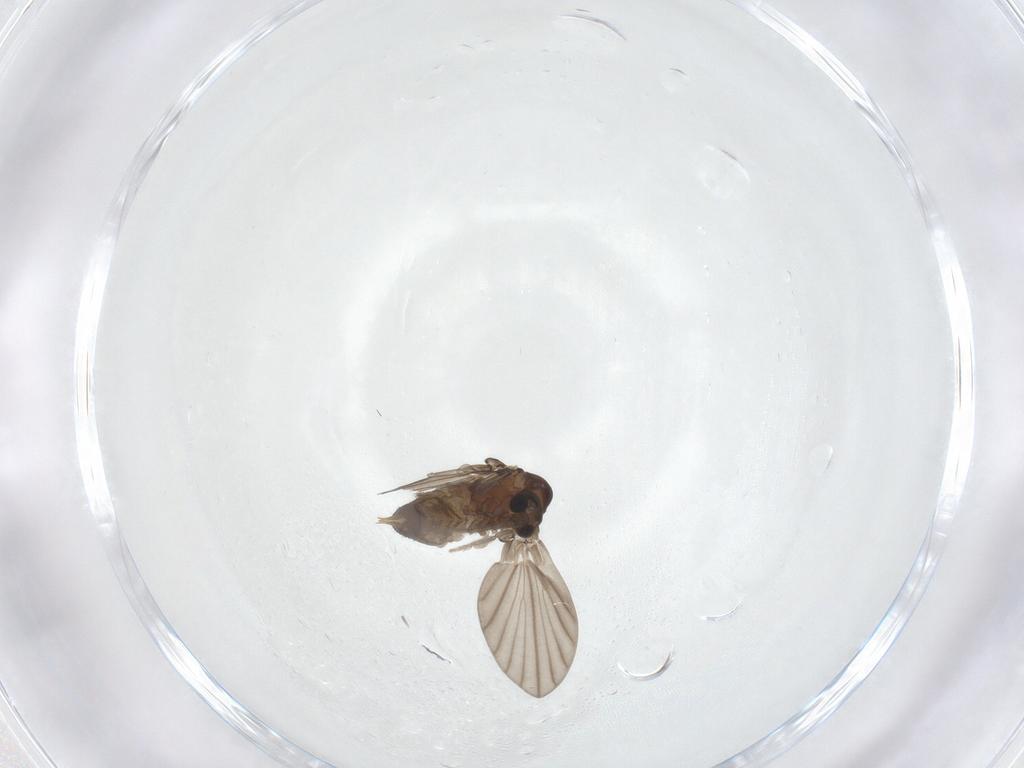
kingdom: Animalia
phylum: Arthropoda
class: Insecta
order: Diptera
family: Psychodidae
